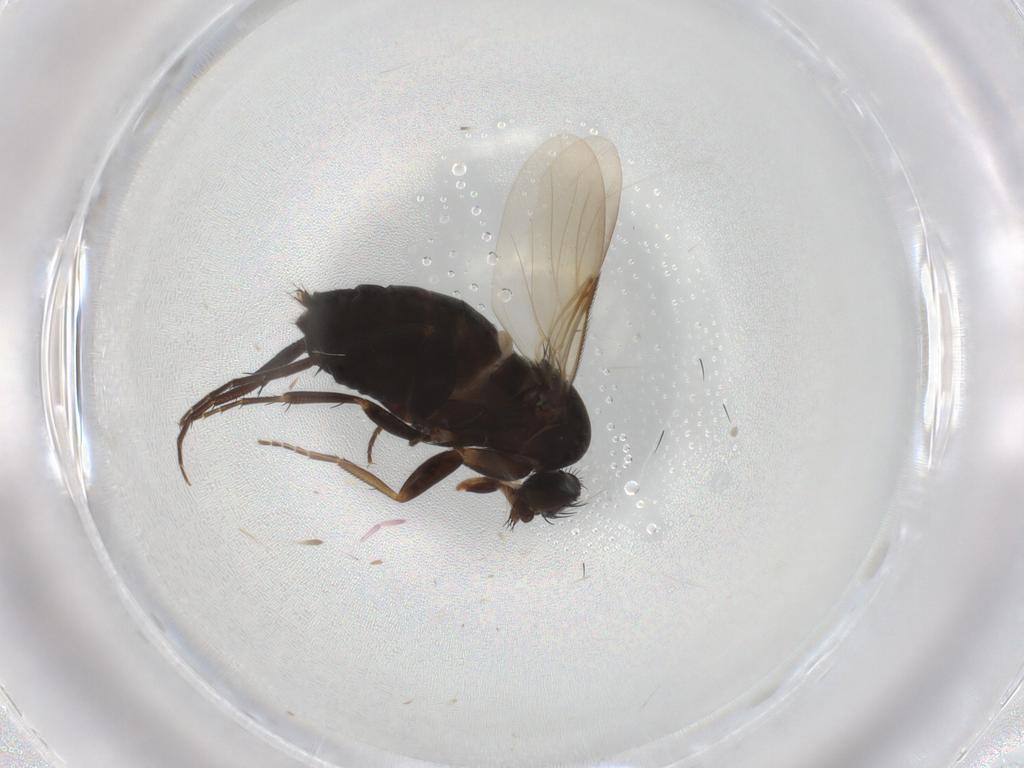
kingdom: Animalia
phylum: Arthropoda
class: Insecta
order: Diptera
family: Phoridae
